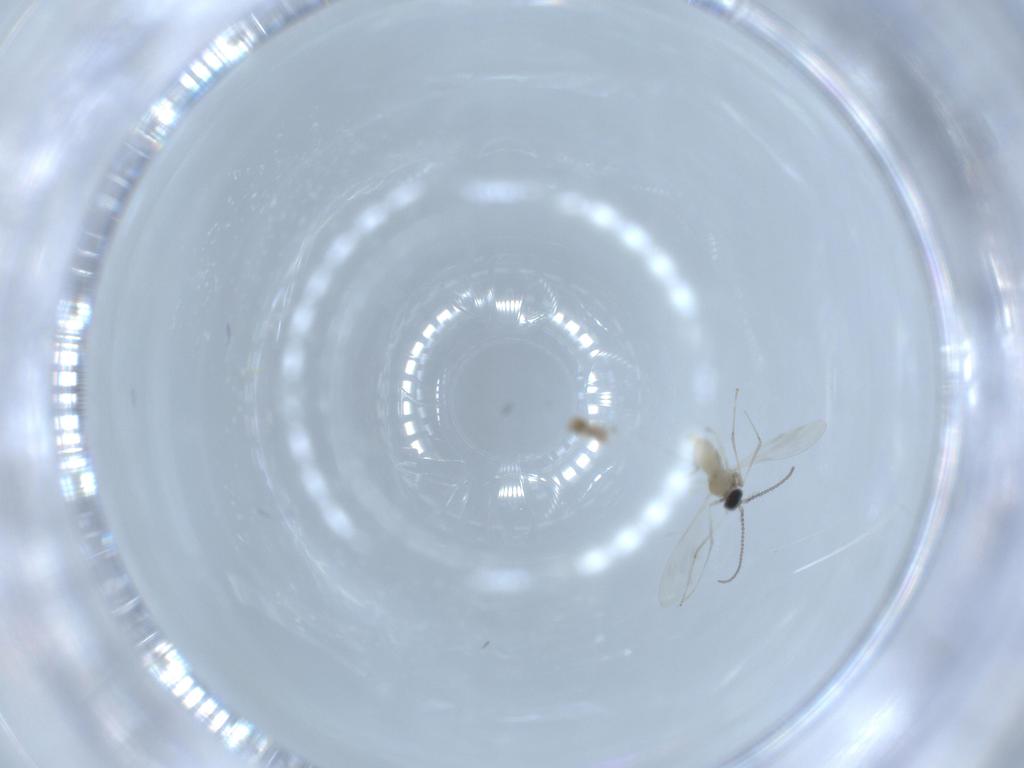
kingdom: Animalia
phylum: Arthropoda
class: Insecta
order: Diptera
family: Cecidomyiidae
